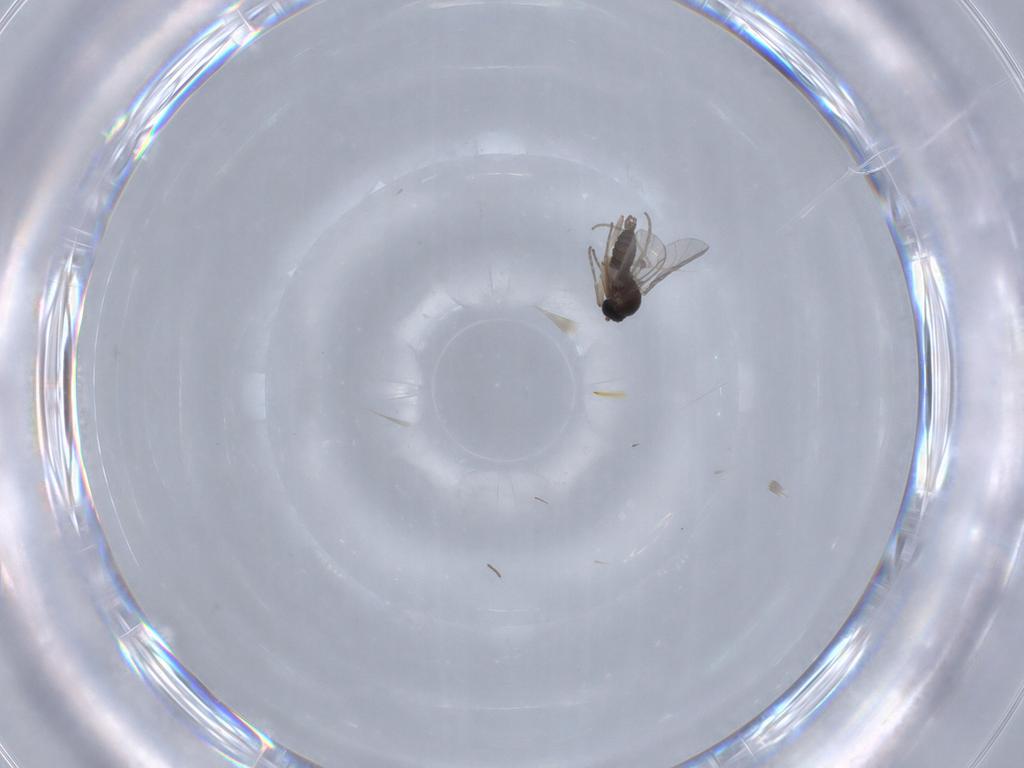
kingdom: Animalia
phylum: Arthropoda
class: Insecta
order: Diptera
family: Sciaridae
